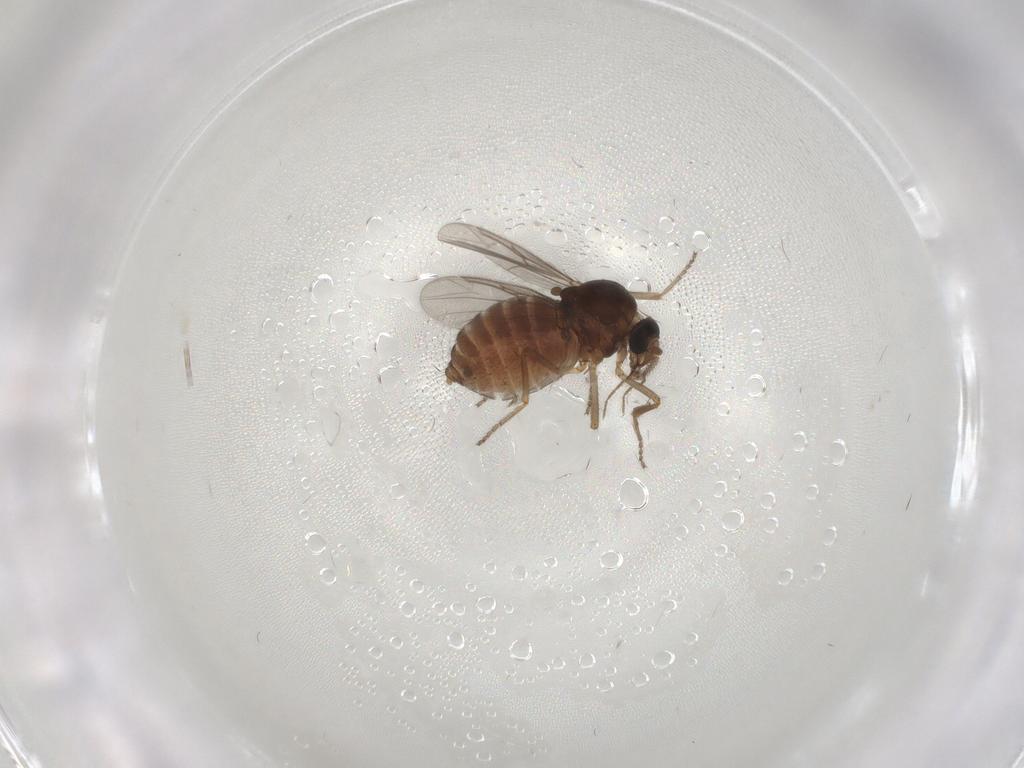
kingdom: Animalia
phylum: Arthropoda
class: Insecta
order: Diptera
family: Ceratopogonidae
